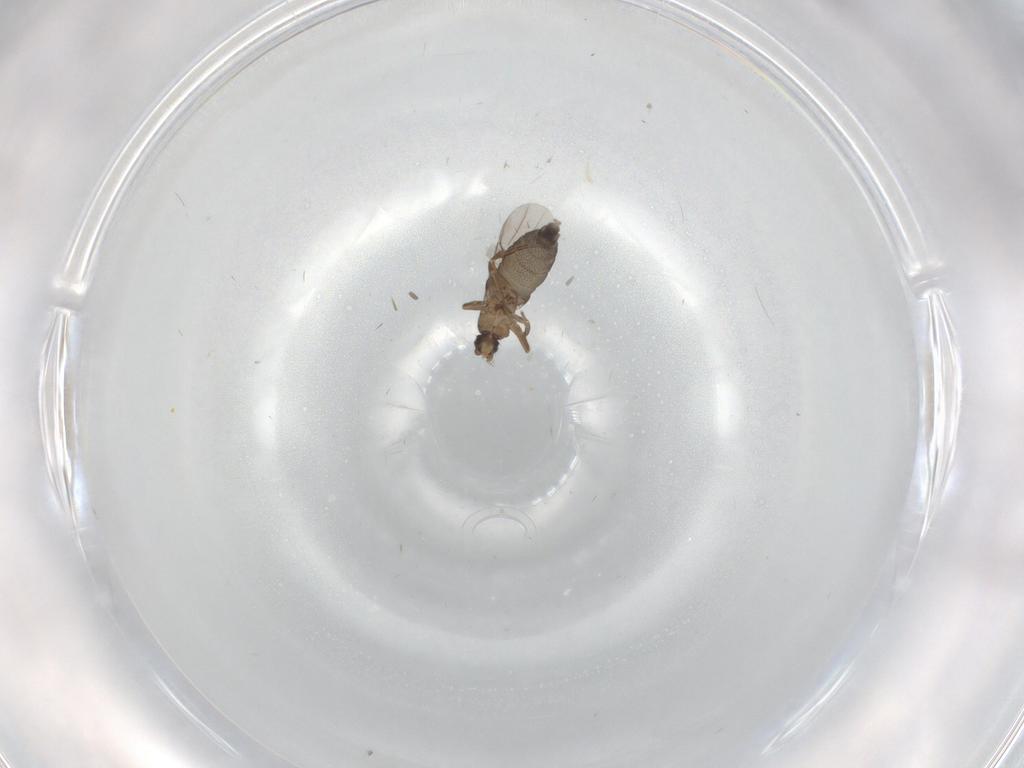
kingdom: Animalia
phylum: Arthropoda
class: Insecta
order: Diptera
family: Phoridae
